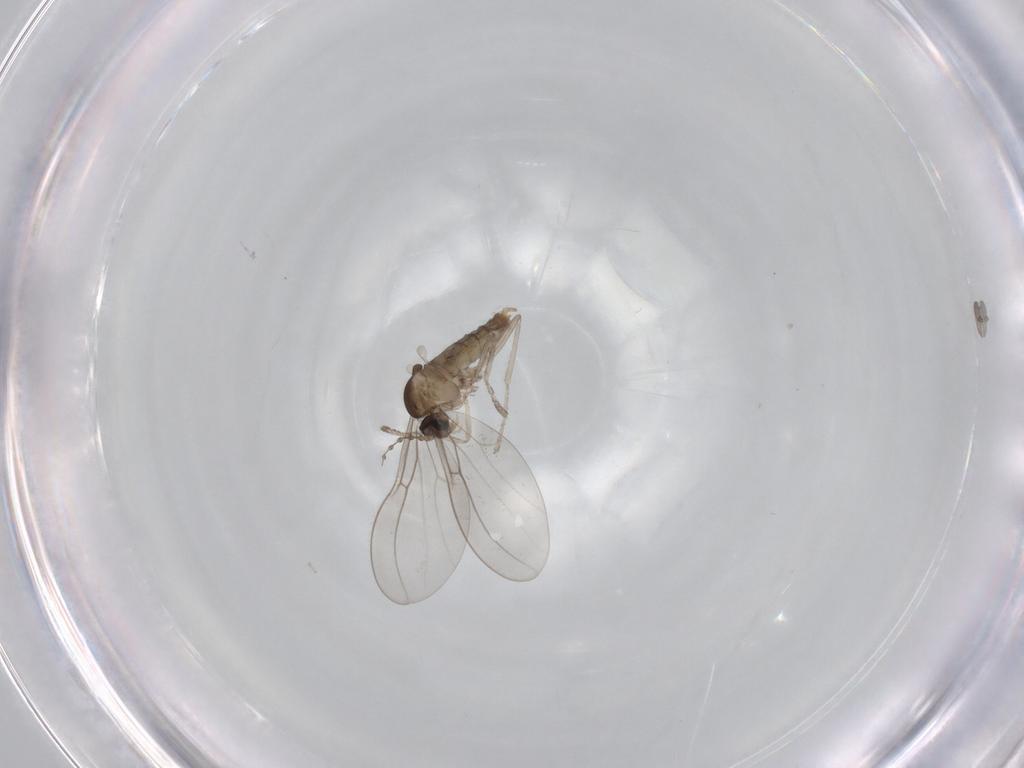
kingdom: Animalia
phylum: Arthropoda
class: Insecta
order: Diptera
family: Cecidomyiidae
